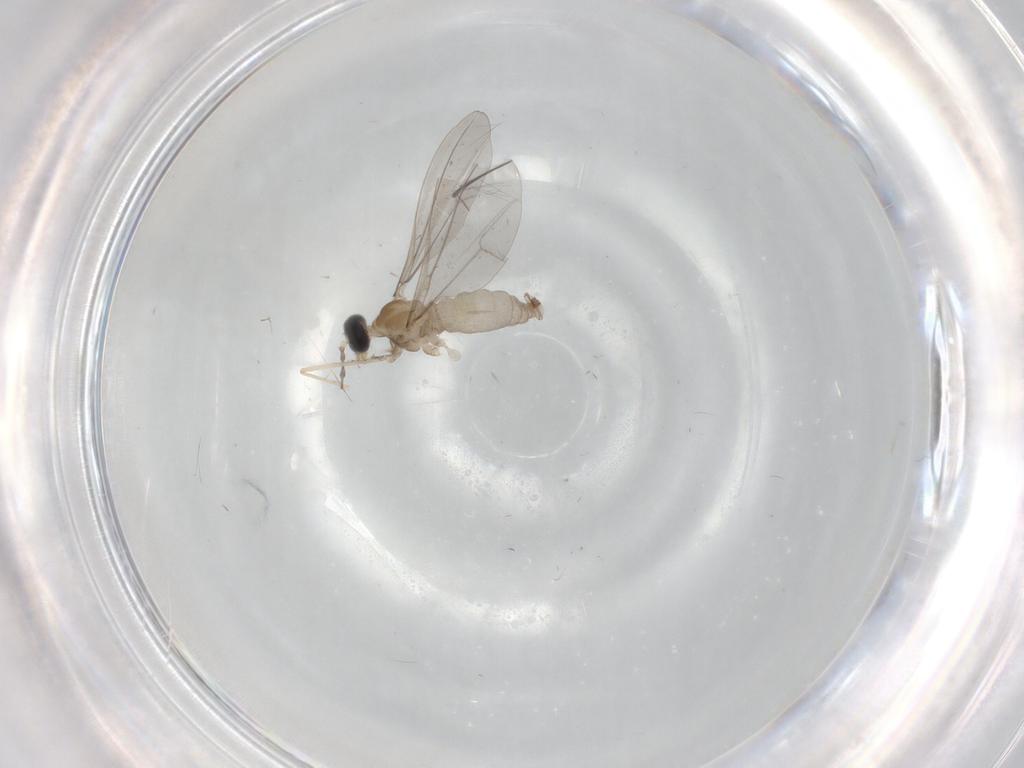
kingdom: Animalia
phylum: Arthropoda
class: Insecta
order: Diptera
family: Cecidomyiidae
